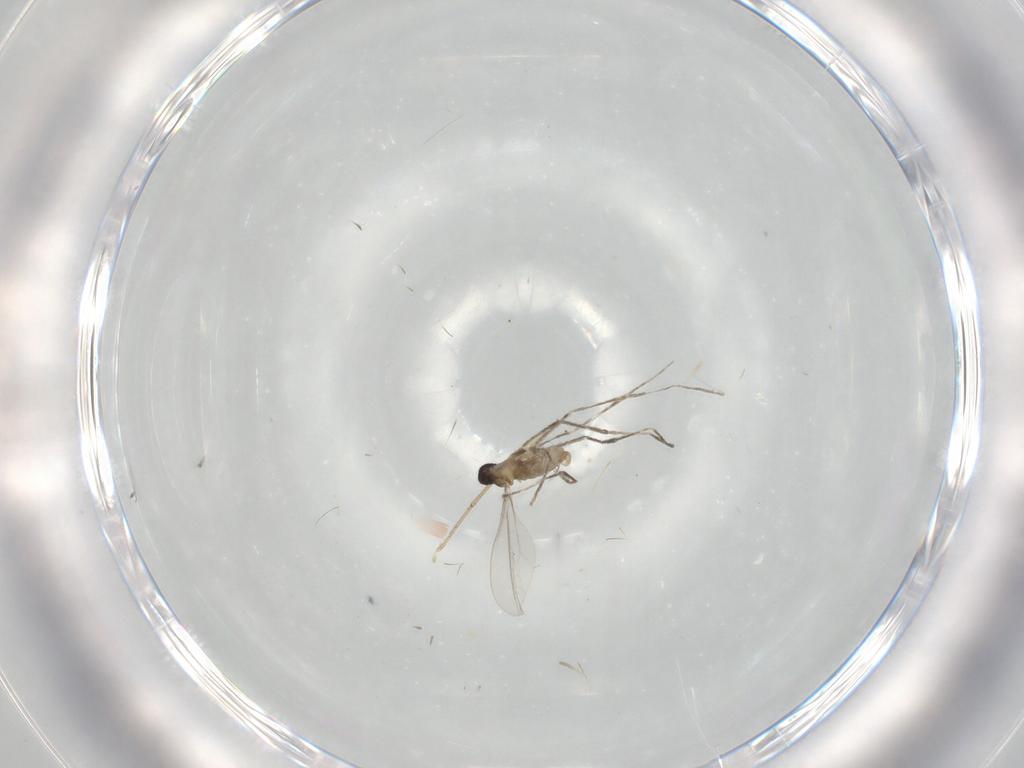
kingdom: Animalia
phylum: Arthropoda
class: Insecta
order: Diptera
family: Cecidomyiidae
